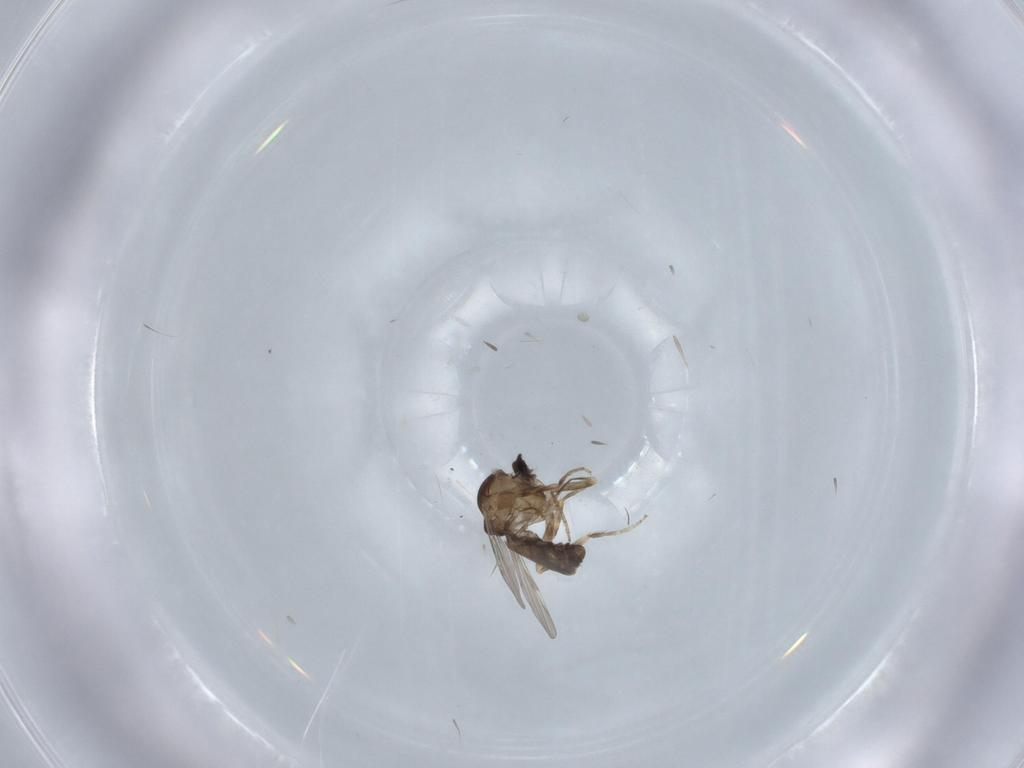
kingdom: Animalia
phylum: Arthropoda
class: Insecta
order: Diptera
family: Ceratopogonidae
